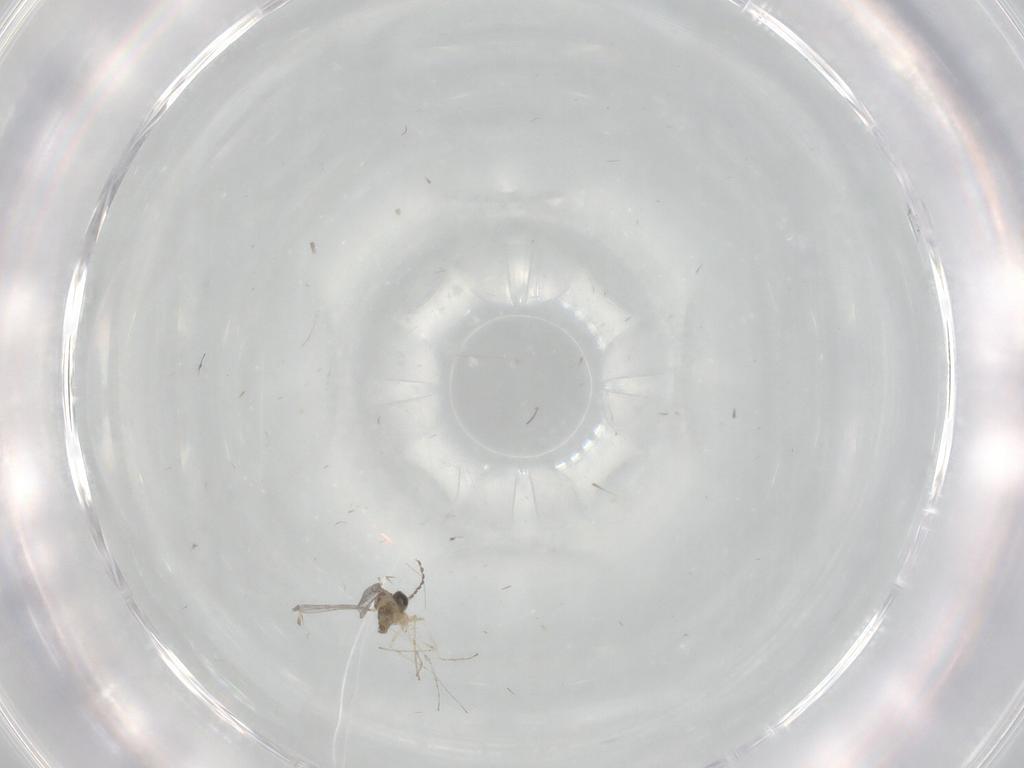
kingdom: Animalia
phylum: Arthropoda
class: Insecta
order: Diptera
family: Cecidomyiidae
